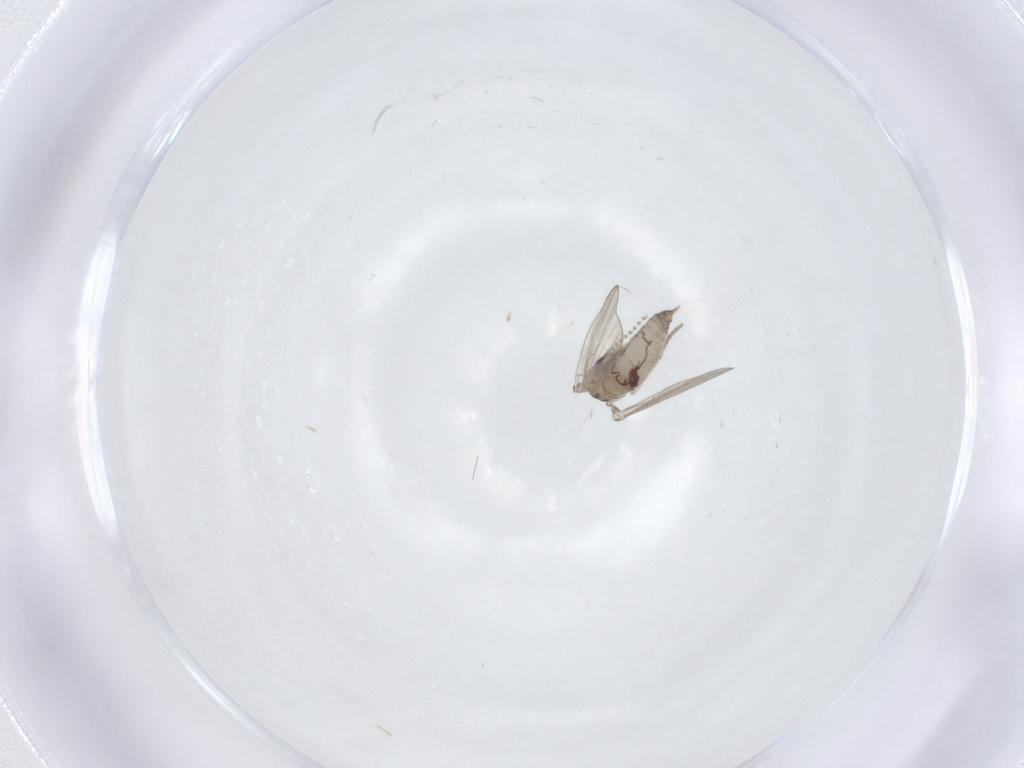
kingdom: Animalia
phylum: Arthropoda
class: Insecta
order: Diptera
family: Psychodidae
